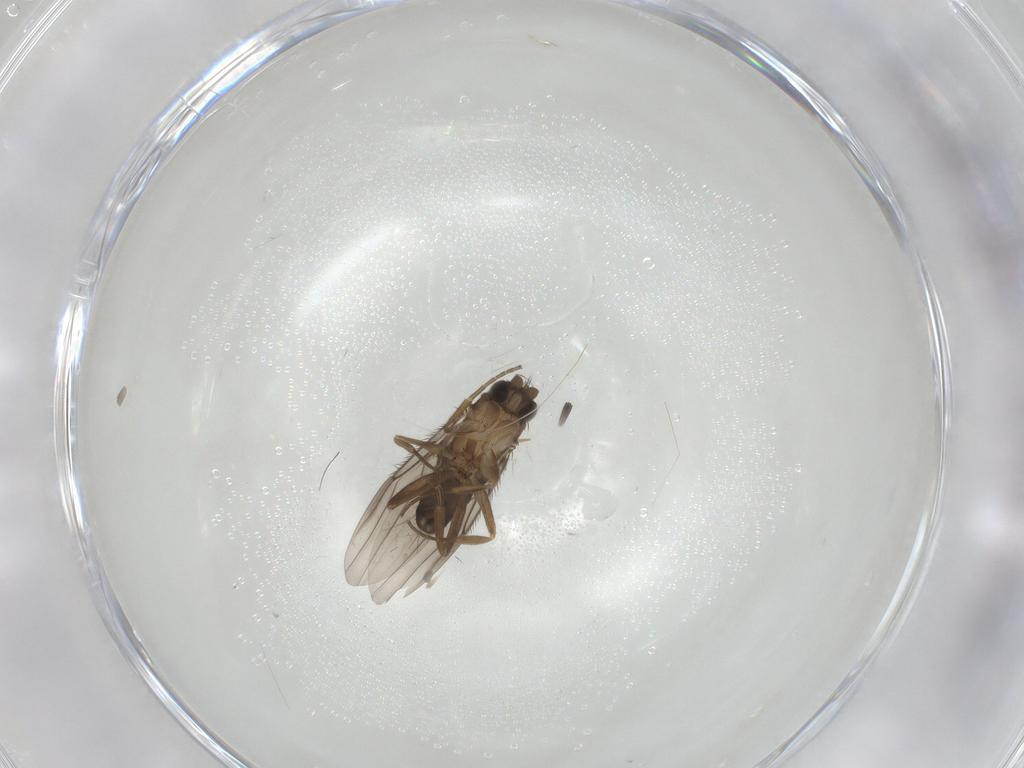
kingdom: Animalia
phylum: Arthropoda
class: Insecta
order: Diptera
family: Phoridae
